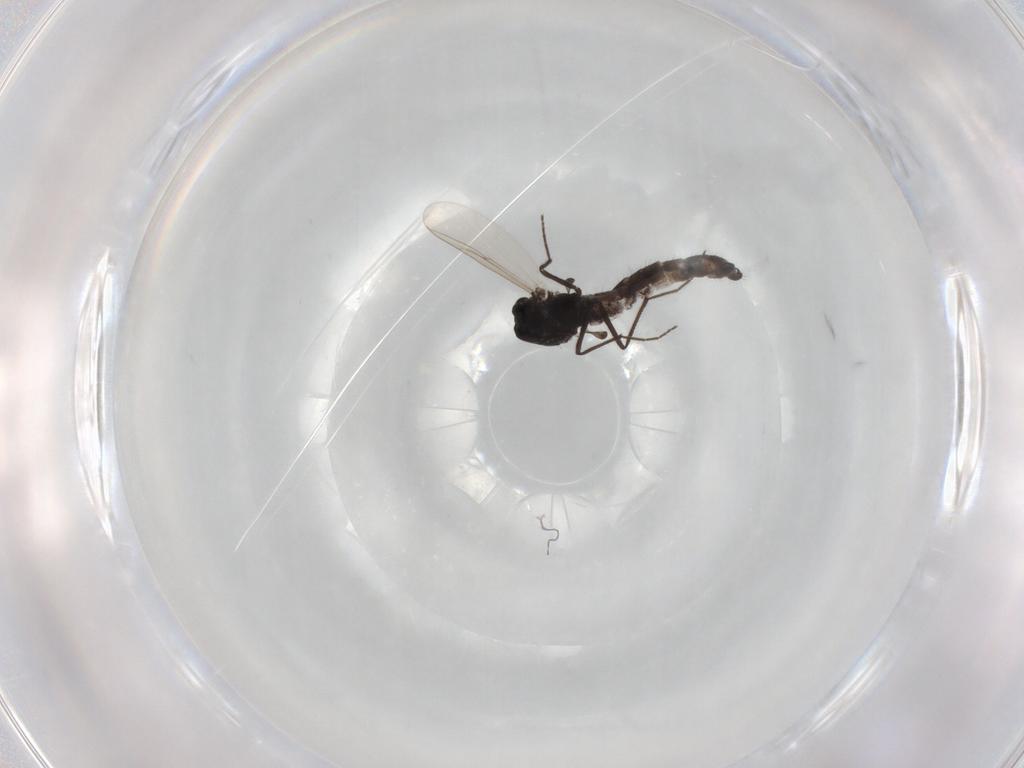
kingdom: Animalia
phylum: Arthropoda
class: Insecta
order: Diptera
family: Chironomidae
